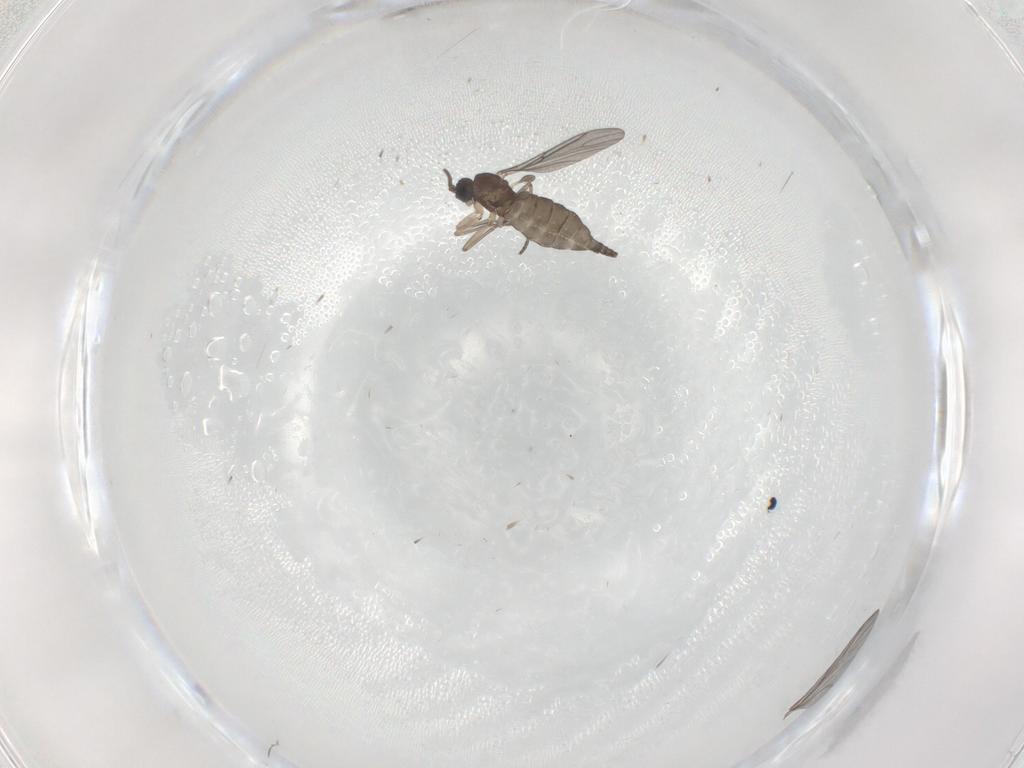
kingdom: Animalia
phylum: Arthropoda
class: Insecta
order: Diptera
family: Sciaridae
